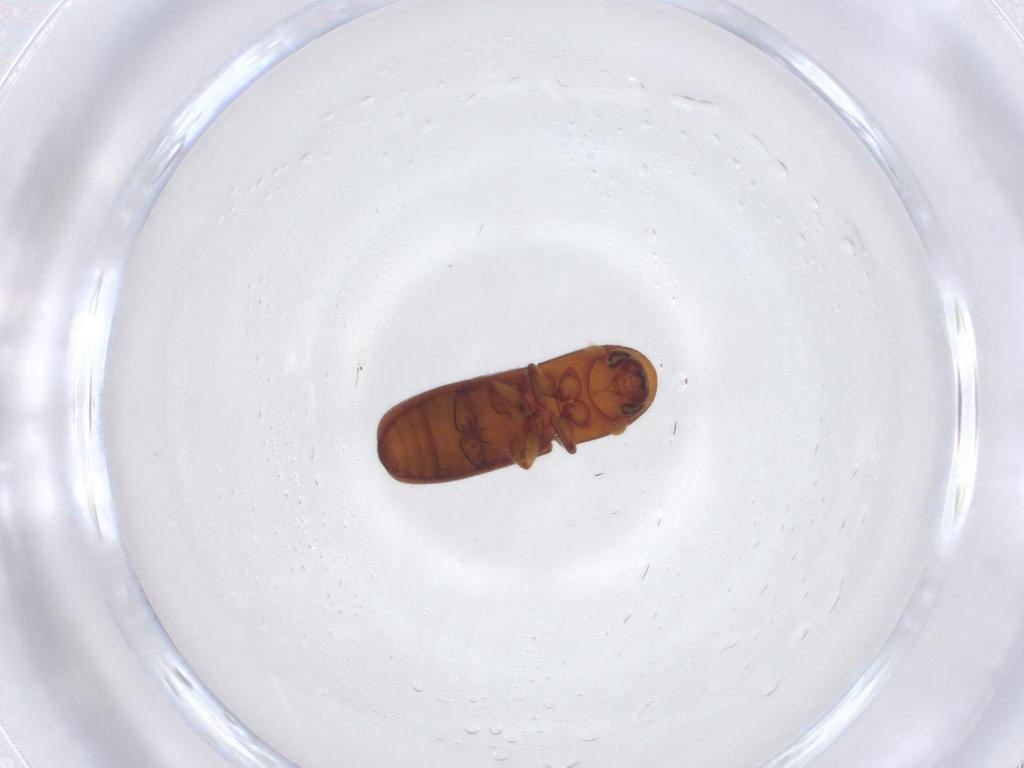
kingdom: Animalia
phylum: Arthropoda
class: Insecta
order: Coleoptera
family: Curculionidae
